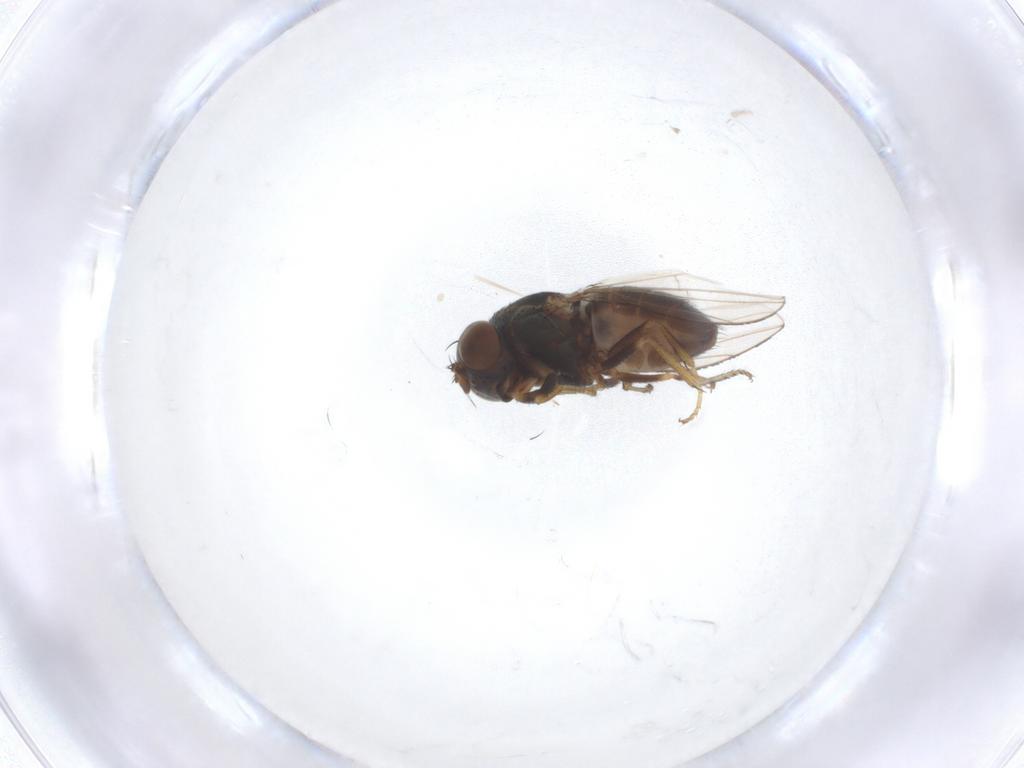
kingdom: Animalia
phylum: Arthropoda
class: Insecta
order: Diptera
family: Ephydridae
